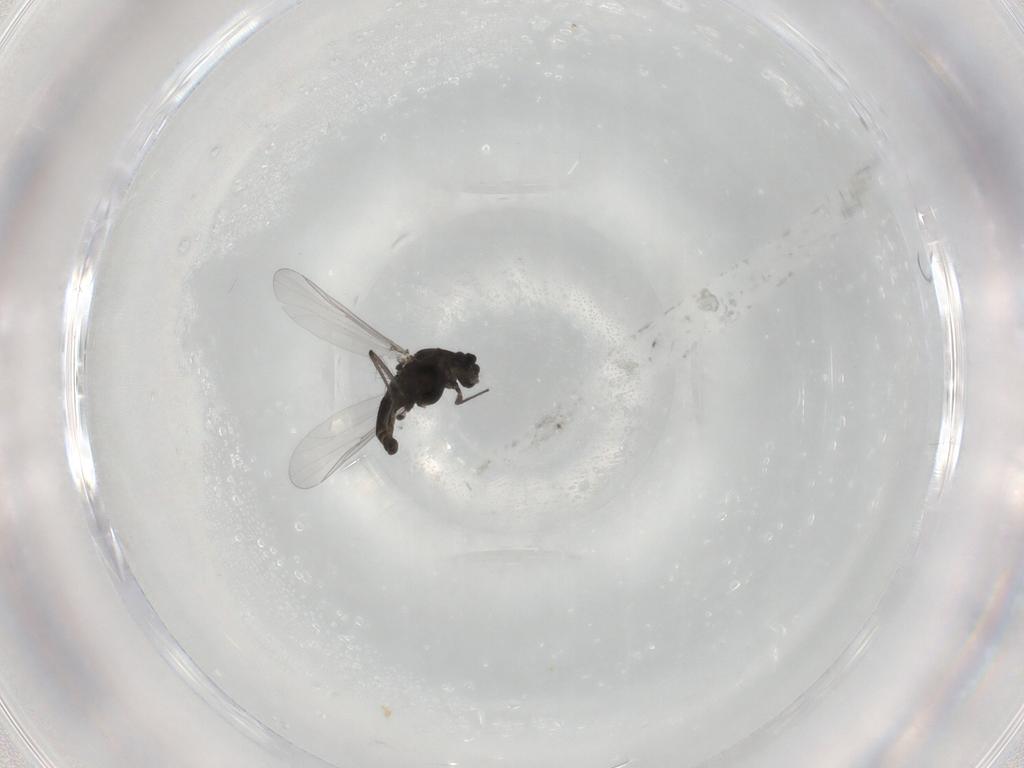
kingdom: Animalia
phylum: Arthropoda
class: Insecta
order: Diptera
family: Chironomidae
